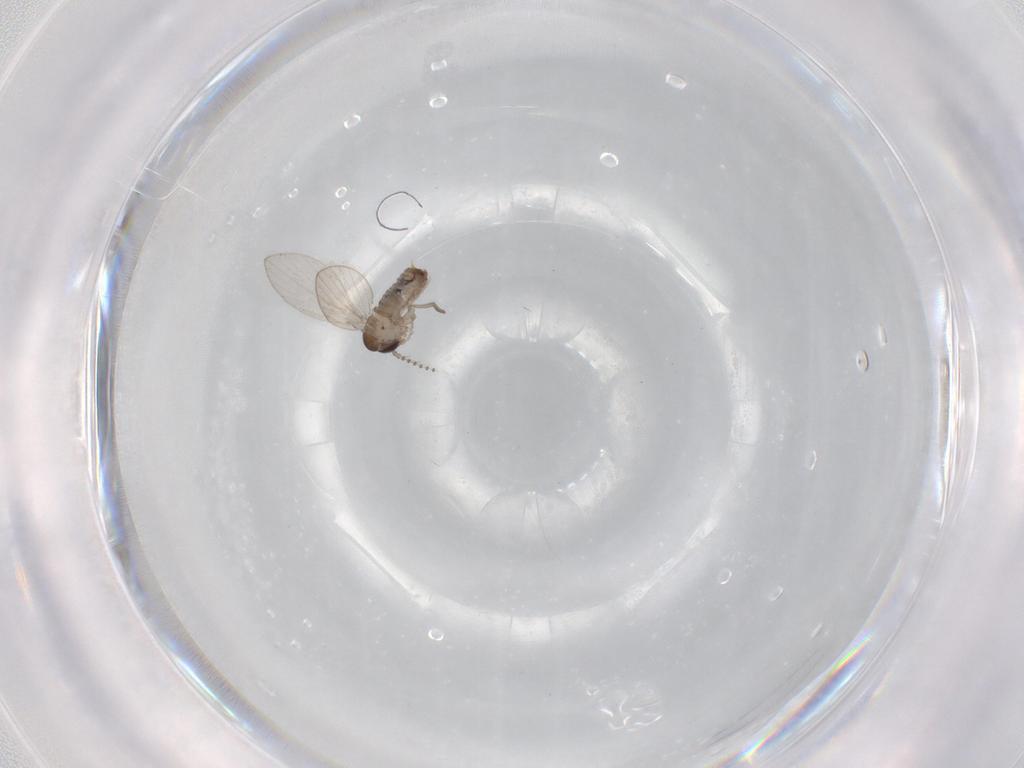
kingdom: Animalia
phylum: Arthropoda
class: Insecta
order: Diptera
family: Psychodidae
